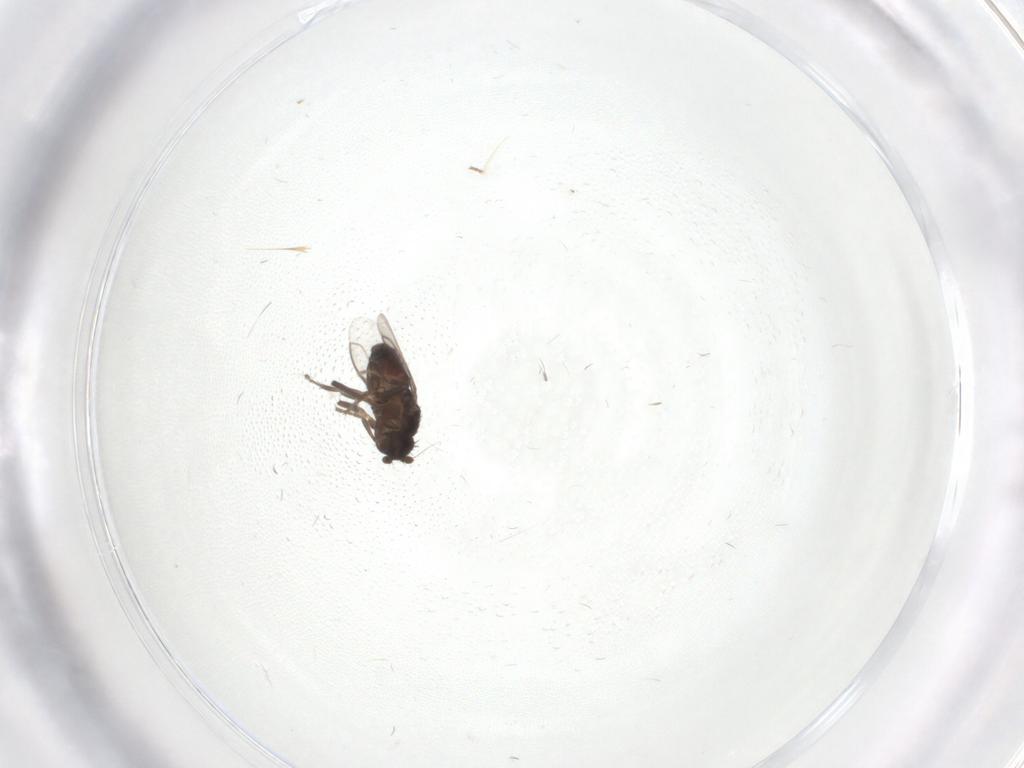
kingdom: Animalia
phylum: Arthropoda
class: Insecta
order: Diptera
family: Sphaeroceridae
